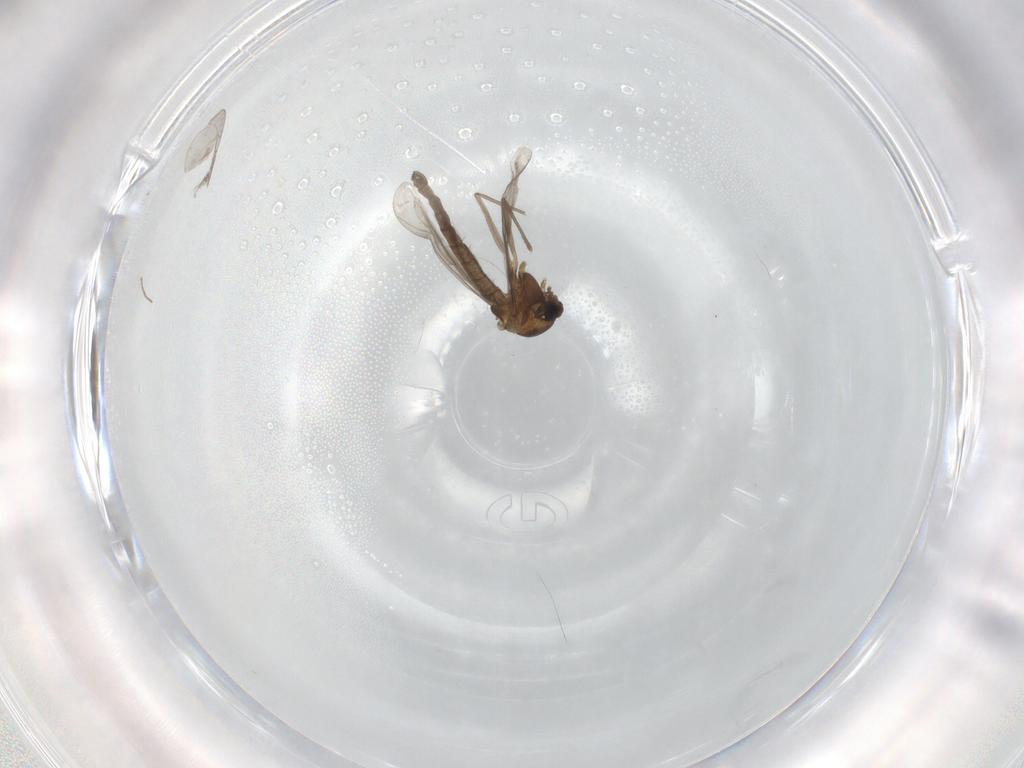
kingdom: Animalia
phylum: Arthropoda
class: Insecta
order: Diptera
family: Chironomidae
